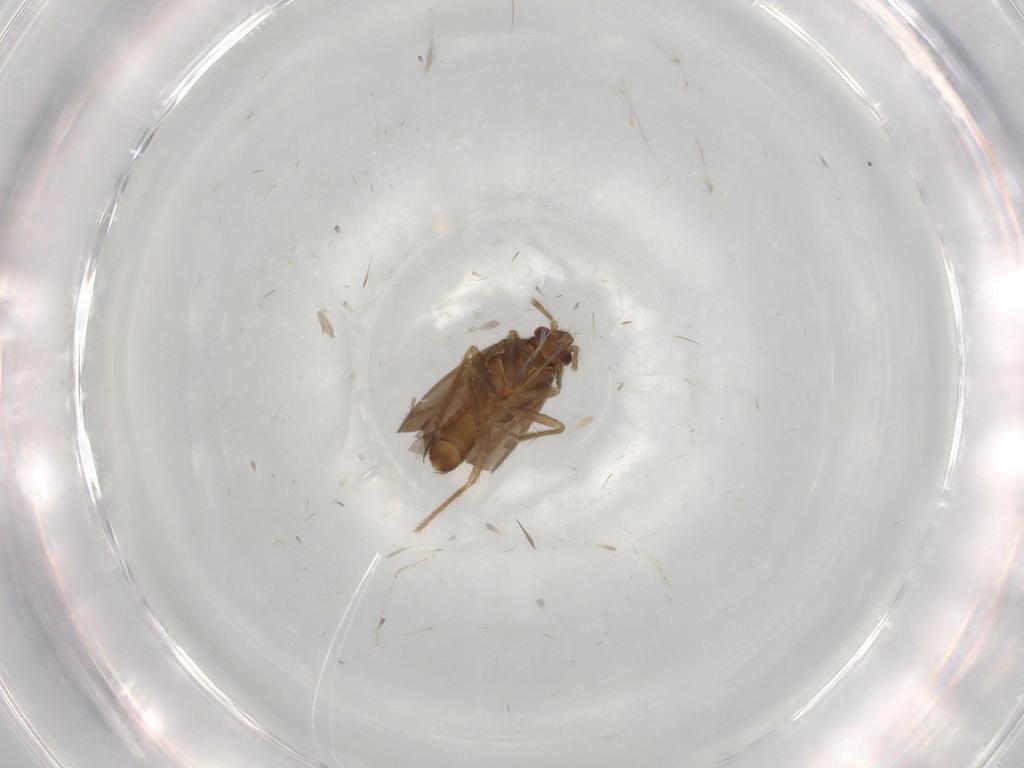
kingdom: Animalia
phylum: Arthropoda
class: Insecta
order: Hemiptera
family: Ceratocombidae
